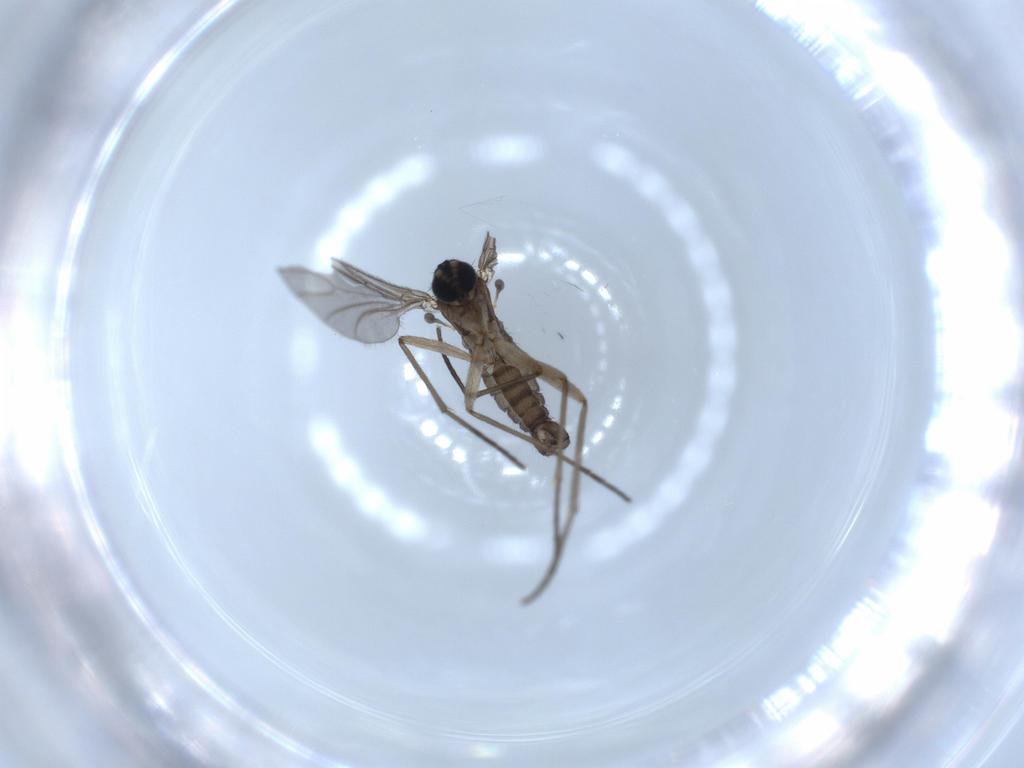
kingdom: Animalia
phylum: Arthropoda
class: Insecta
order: Diptera
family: Sciaridae
